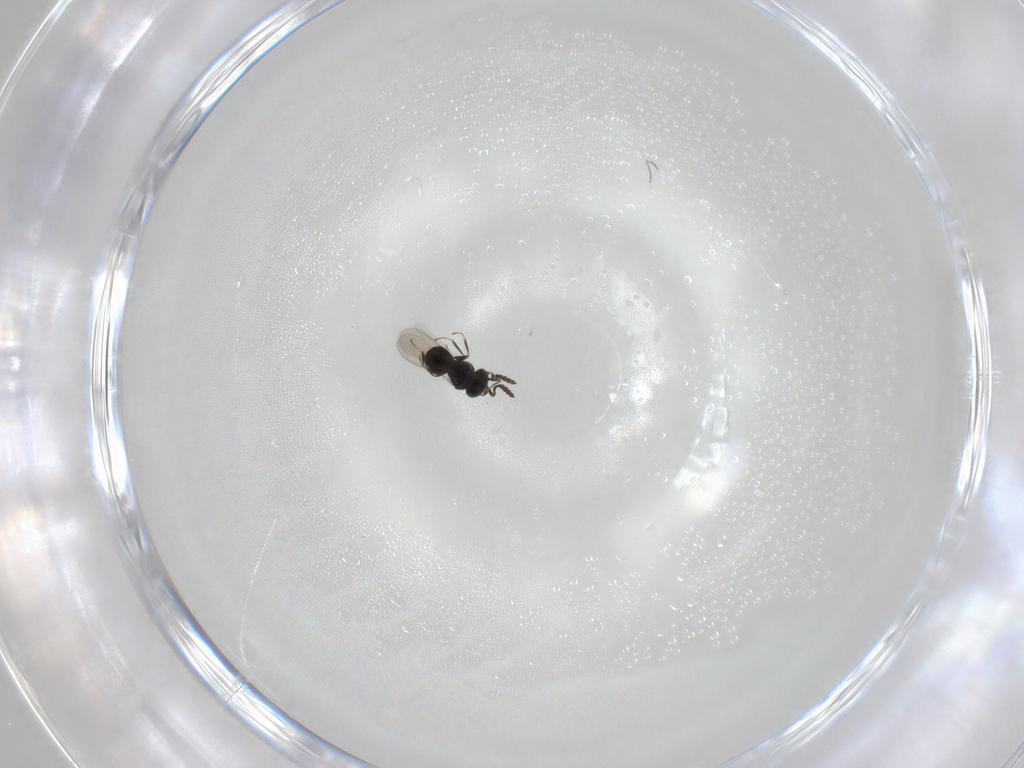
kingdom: Animalia
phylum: Arthropoda
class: Insecta
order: Hymenoptera
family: Scelionidae
